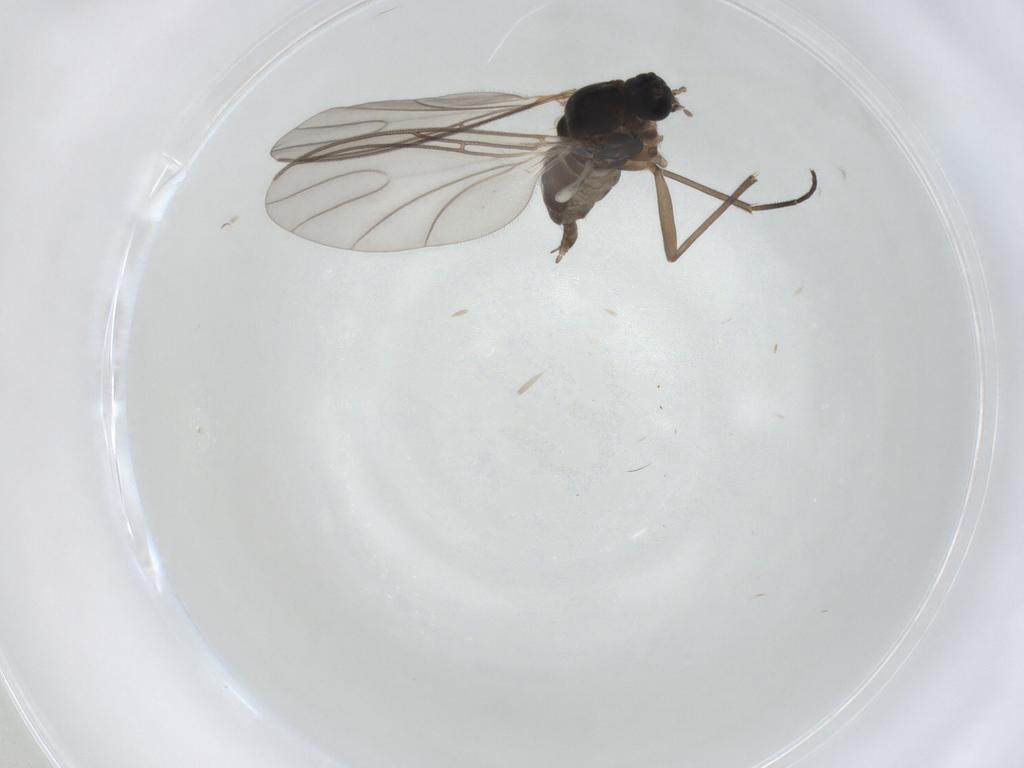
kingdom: Animalia
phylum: Arthropoda
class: Insecta
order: Diptera
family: Sciaridae
